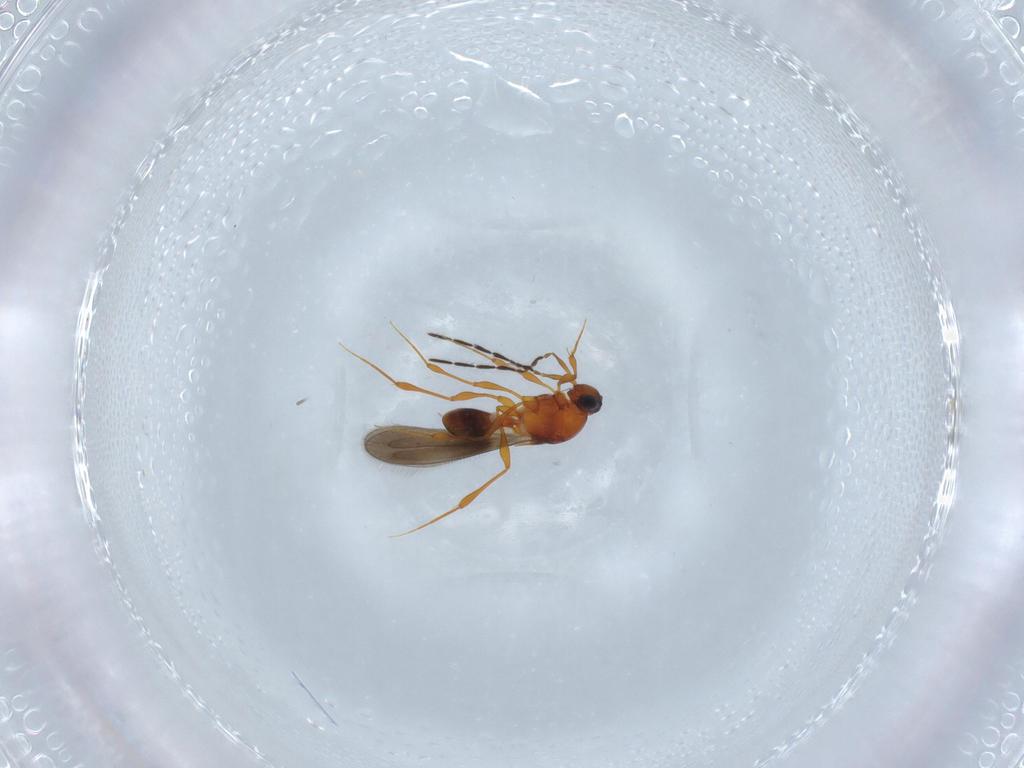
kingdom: Animalia
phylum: Arthropoda
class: Insecta
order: Hymenoptera
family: Platygastridae
